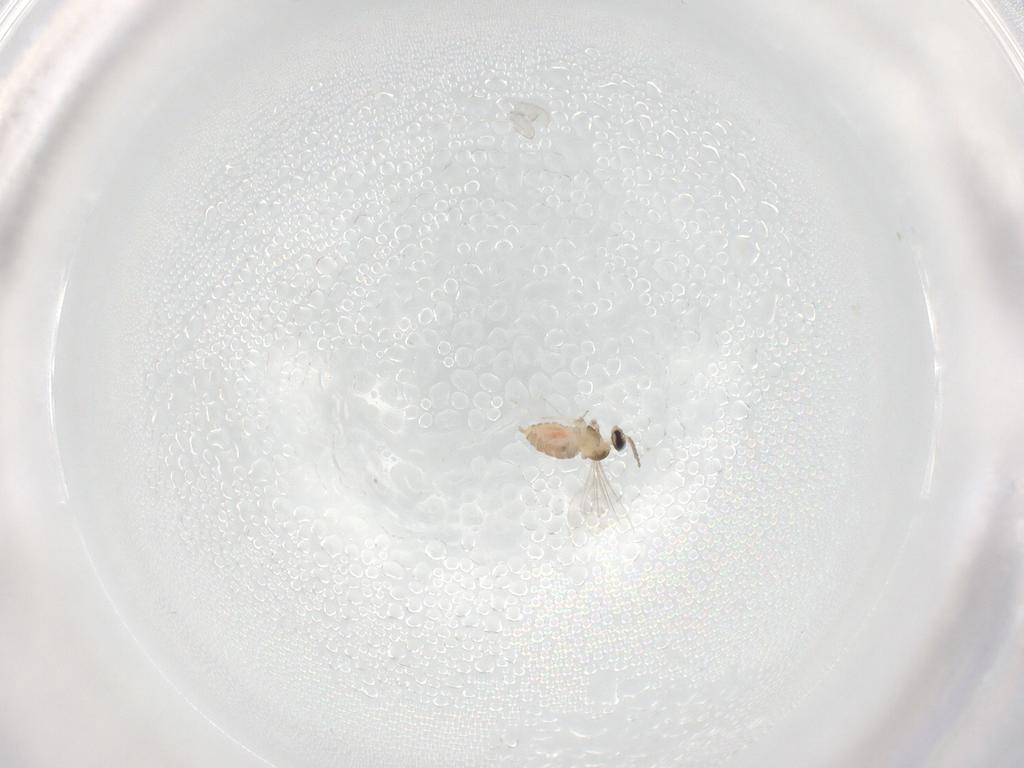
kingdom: Animalia
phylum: Arthropoda
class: Insecta
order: Diptera
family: Cecidomyiidae
